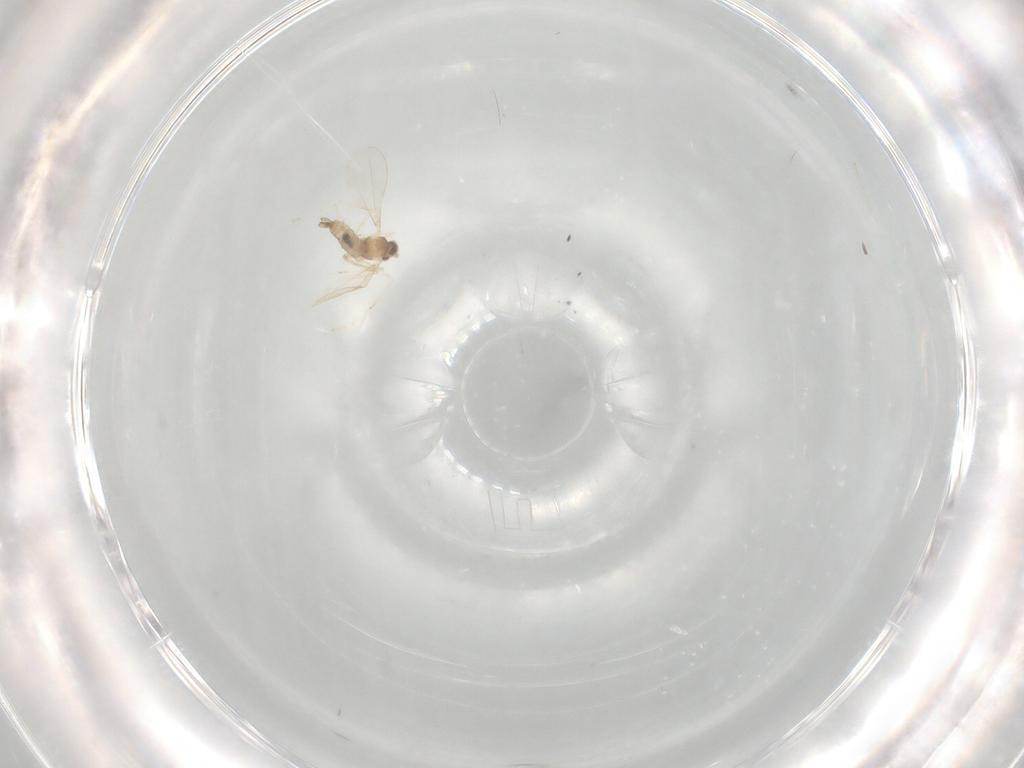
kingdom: Animalia
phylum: Arthropoda
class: Insecta
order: Diptera
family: Cecidomyiidae
